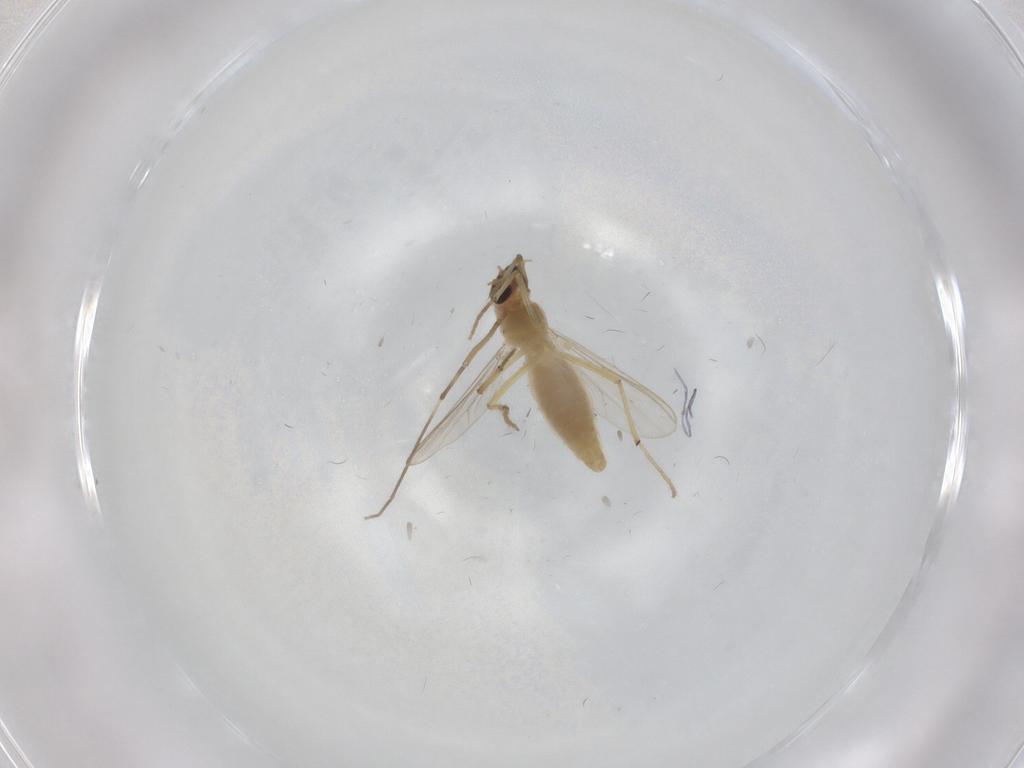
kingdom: Animalia
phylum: Arthropoda
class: Insecta
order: Diptera
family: Chironomidae
